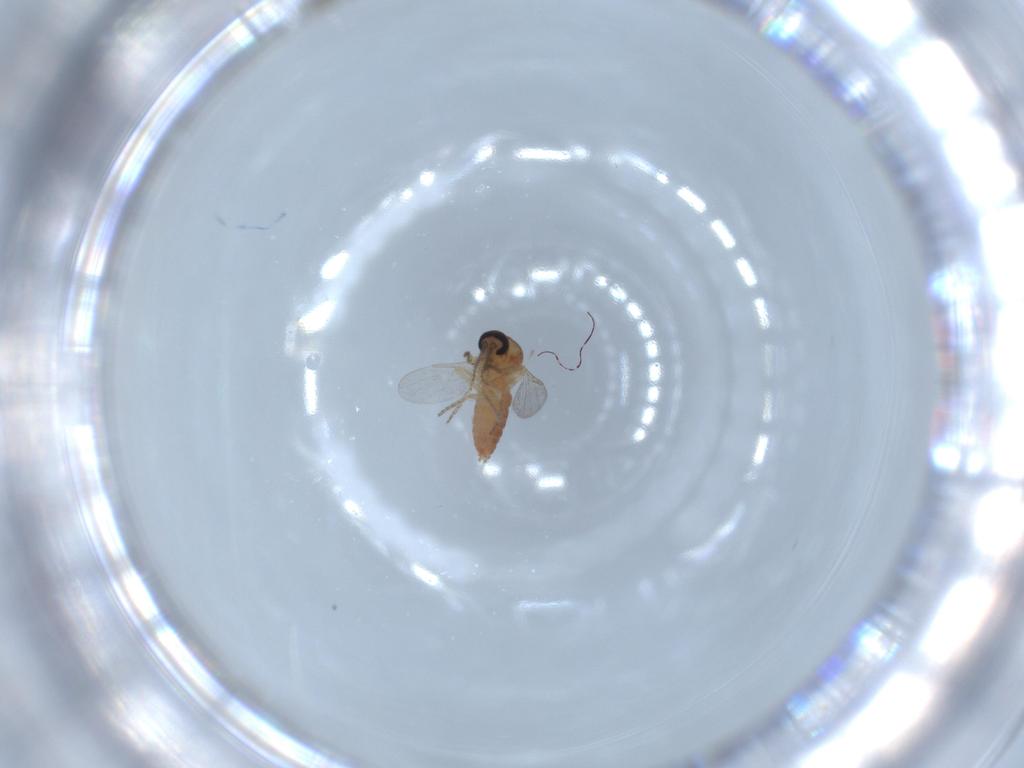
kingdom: Animalia
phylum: Arthropoda
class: Insecta
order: Diptera
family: Ceratopogonidae
